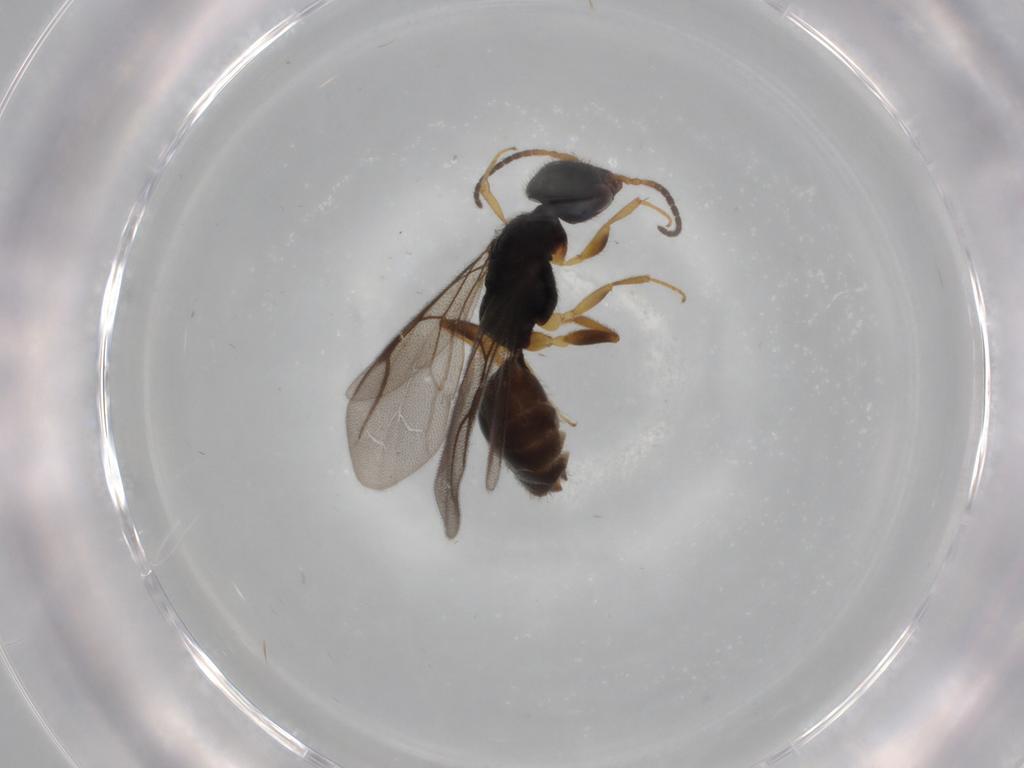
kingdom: Animalia
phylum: Arthropoda
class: Insecta
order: Hymenoptera
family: Bethylidae
